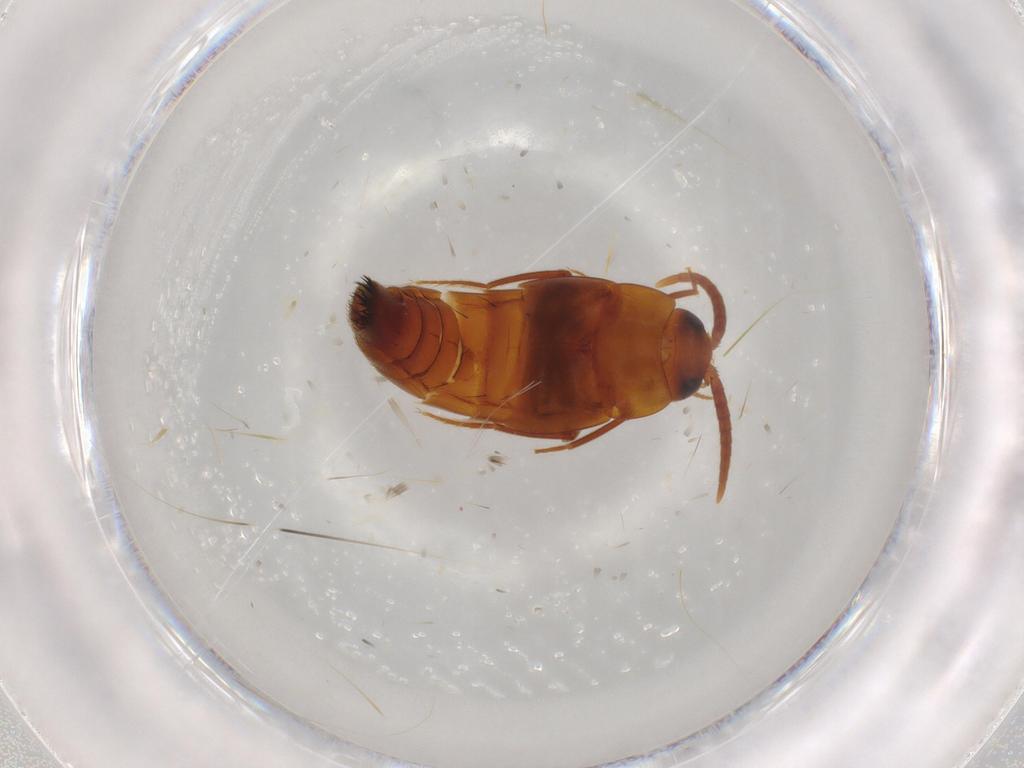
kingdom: Animalia
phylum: Arthropoda
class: Insecta
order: Coleoptera
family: Staphylinidae
